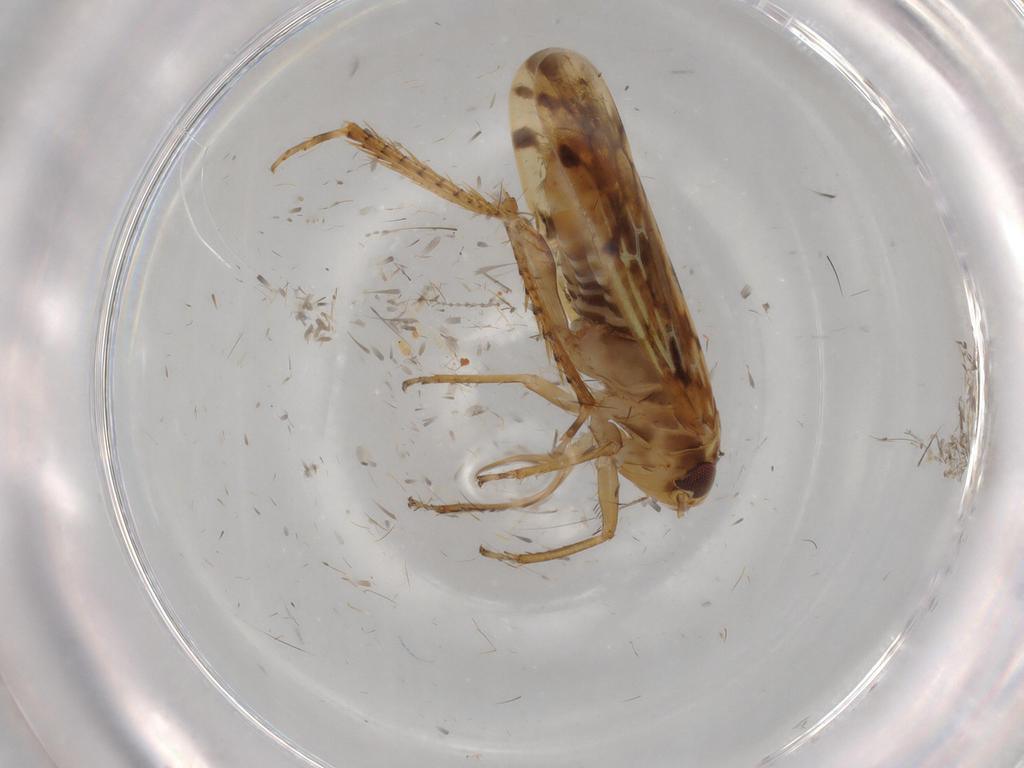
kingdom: Animalia
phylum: Arthropoda
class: Insecta
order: Hemiptera
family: Cicadellidae
